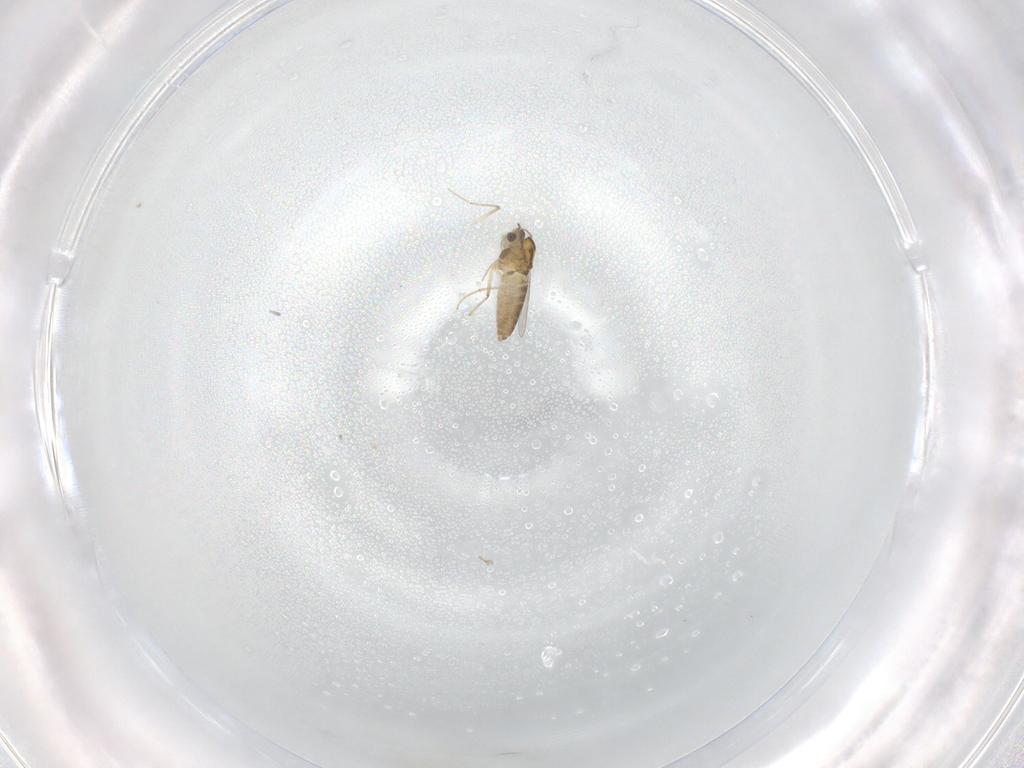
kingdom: Animalia
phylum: Arthropoda
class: Insecta
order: Diptera
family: Chironomidae
